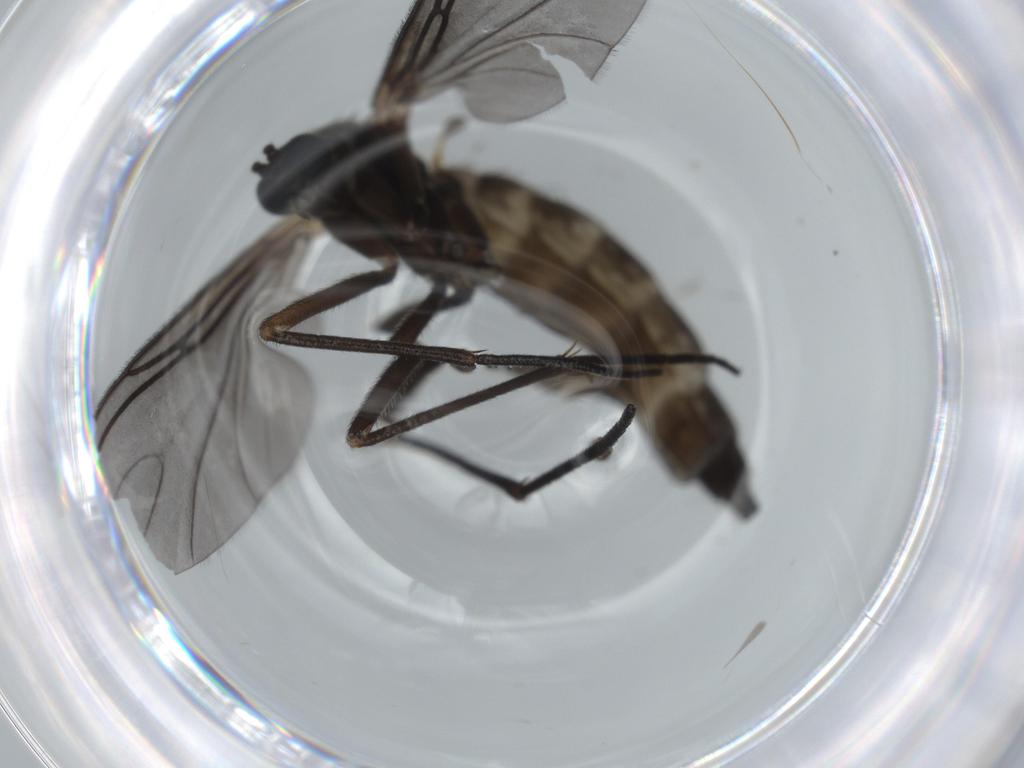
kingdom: Animalia
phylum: Arthropoda
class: Insecta
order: Diptera
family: Sciaridae
